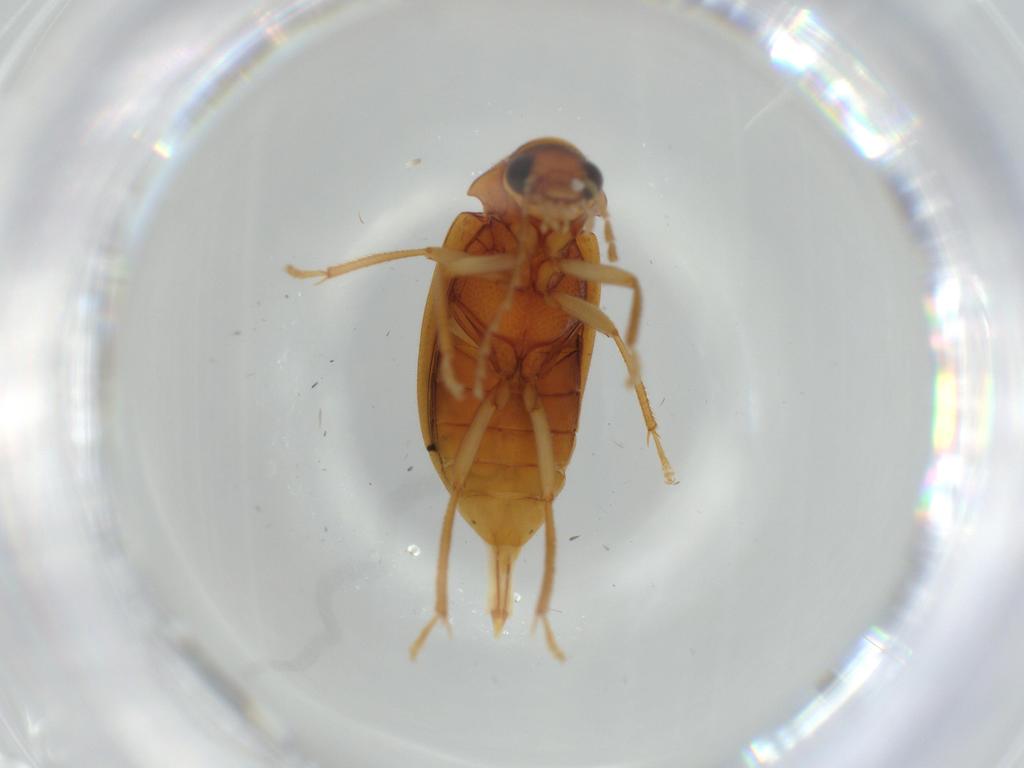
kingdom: Animalia
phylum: Arthropoda
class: Insecta
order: Coleoptera
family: Ptilodactylidae
